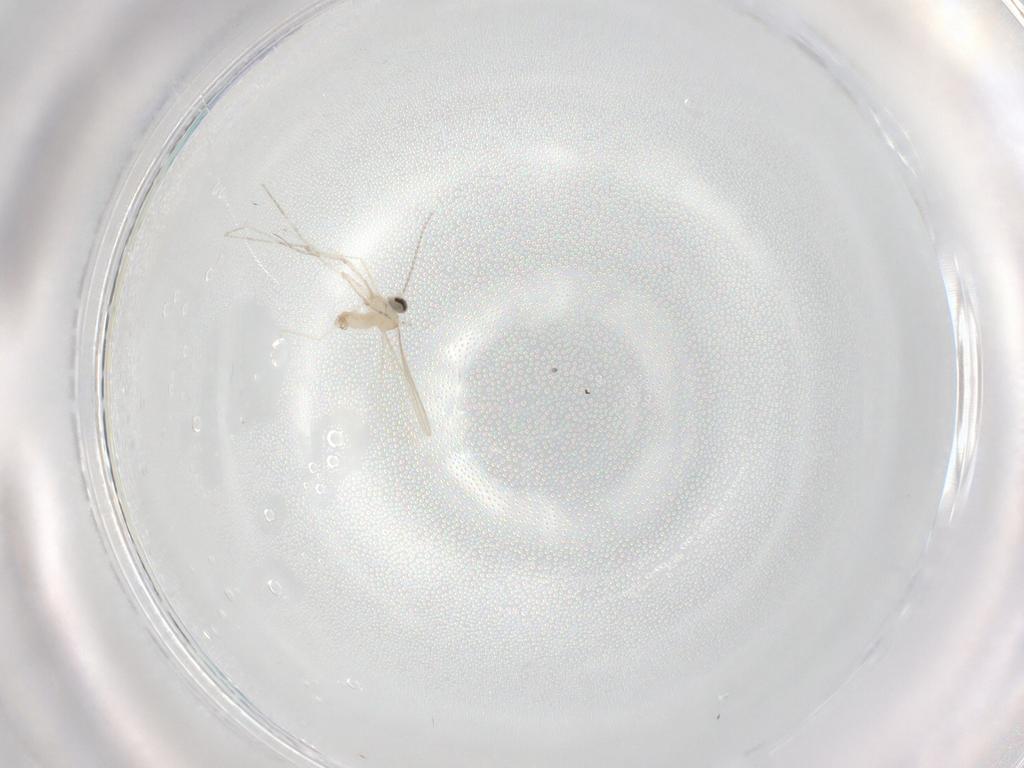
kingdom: Animalia
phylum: Arthropoda
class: Insecta
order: Diptera
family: Cecidomyiidae
